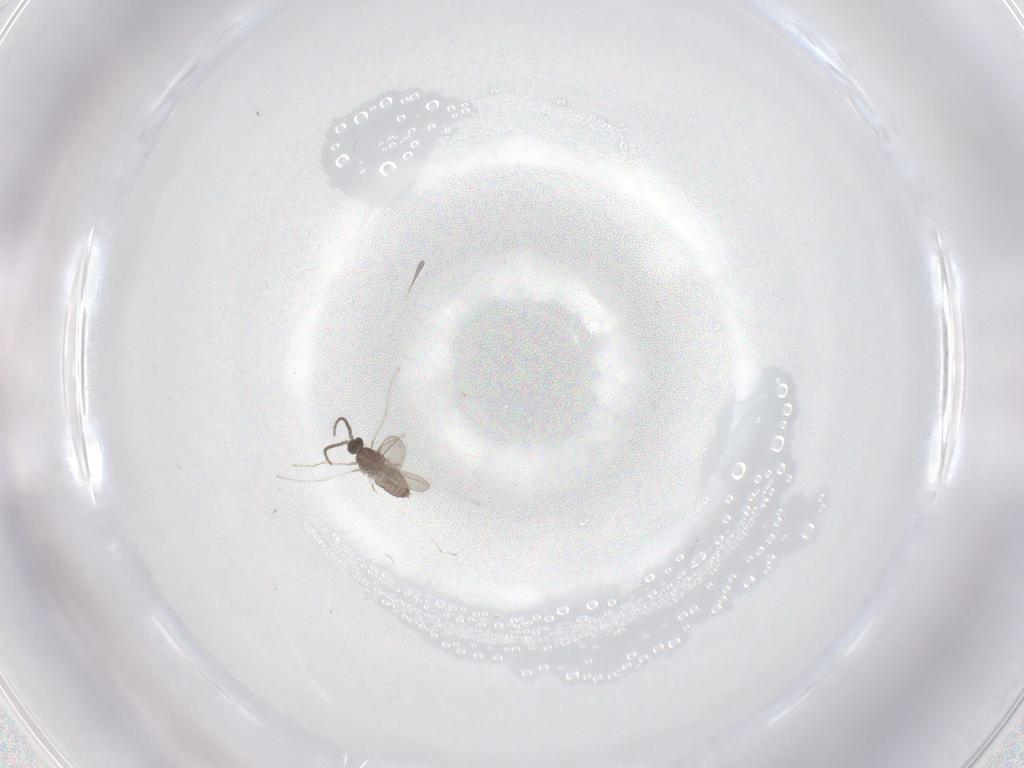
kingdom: Animalia
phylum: Arthropoda
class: Insecta
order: Diptera
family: Cecidomyiidae
